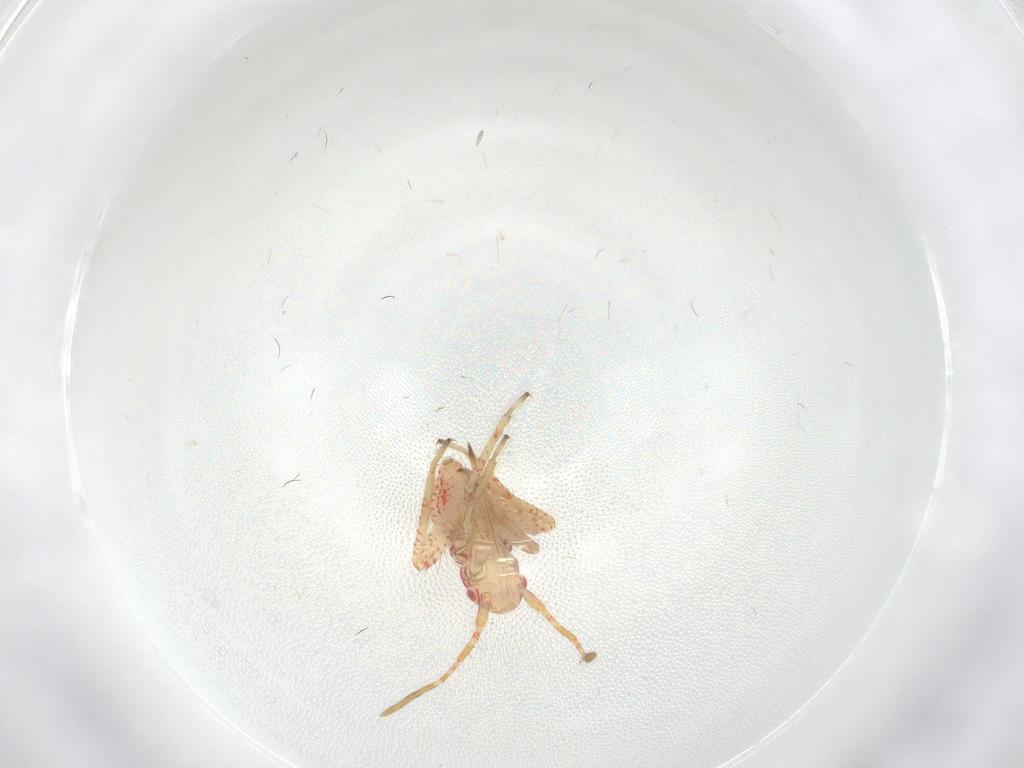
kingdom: Animalia
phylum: Arthropoda
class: Insecta
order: Hemiptera
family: Miridae
